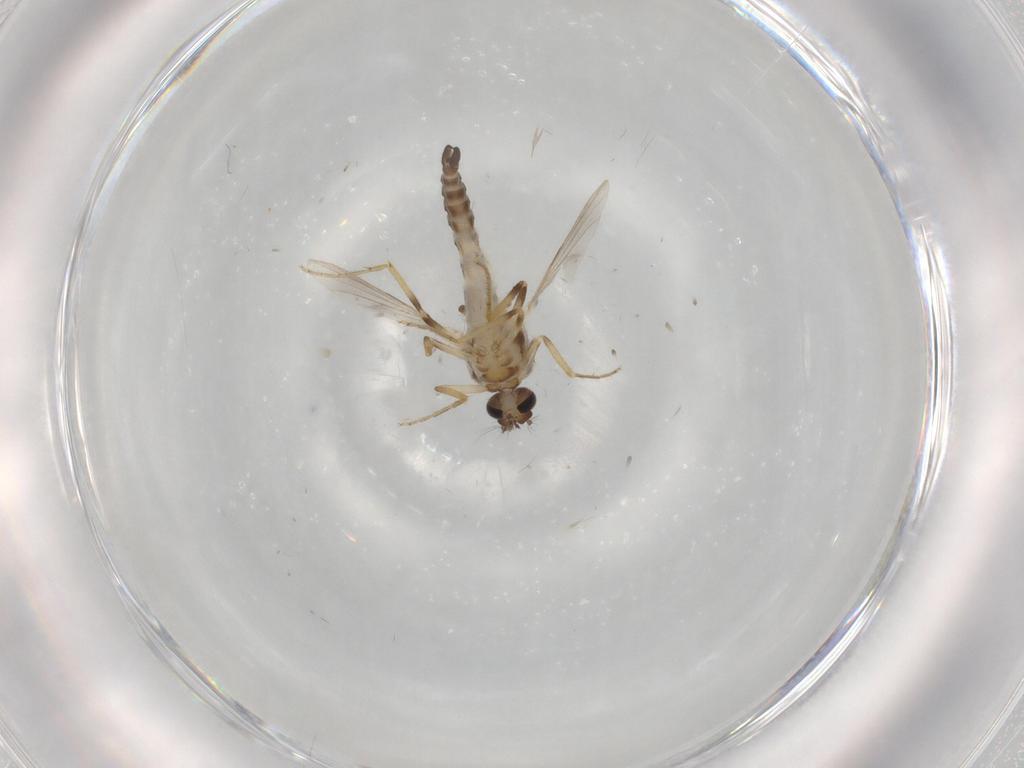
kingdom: Animalia
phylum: Arthropoda
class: Insecta
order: Diptera
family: Ceratopogonidae
